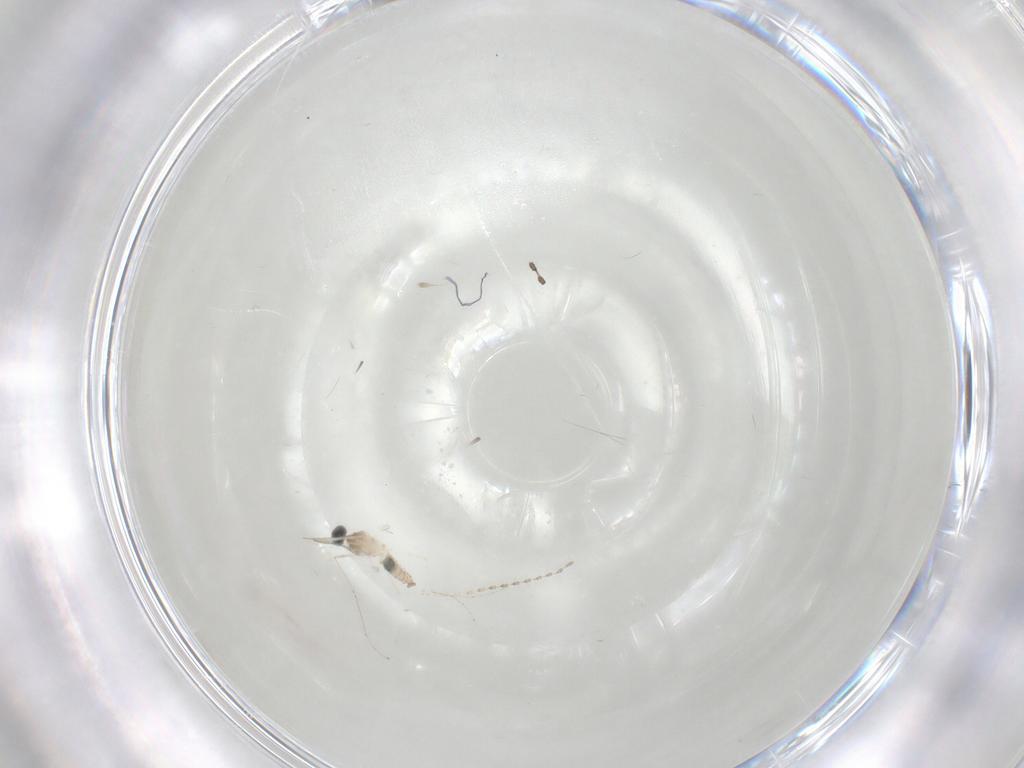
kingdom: Animalia
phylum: Arthropoda
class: Insecta
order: Diptera
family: Cecidomyiidae
